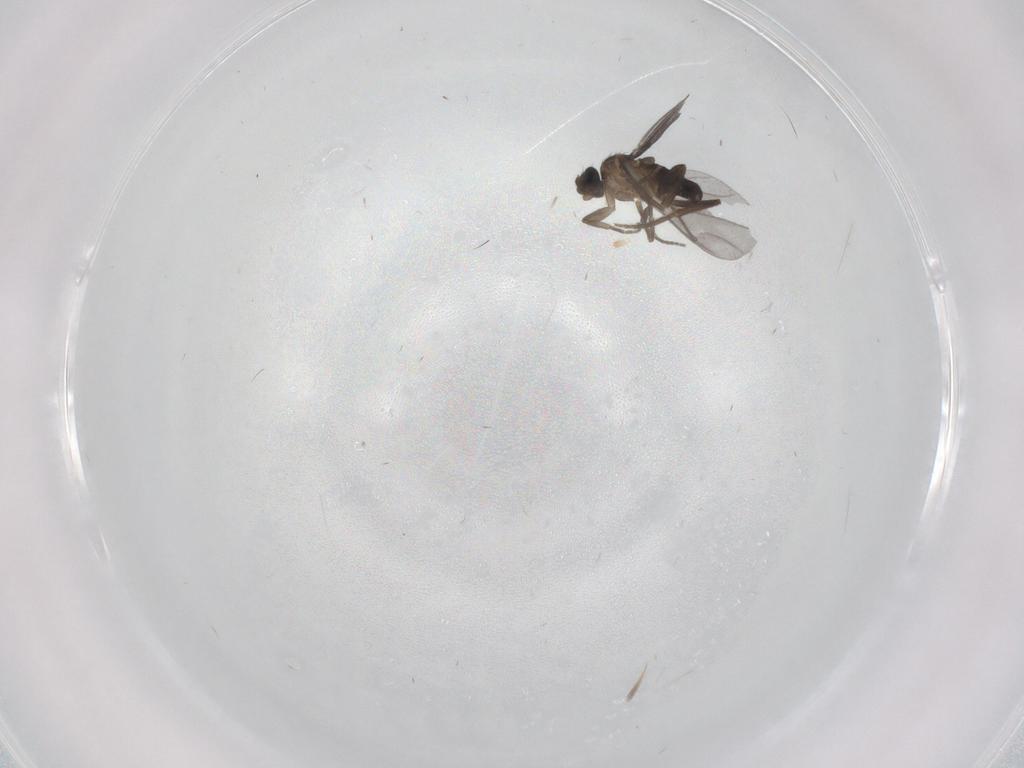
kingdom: Animalia
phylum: Arthropoda
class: Insecta
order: Diptera
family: Phoridae
